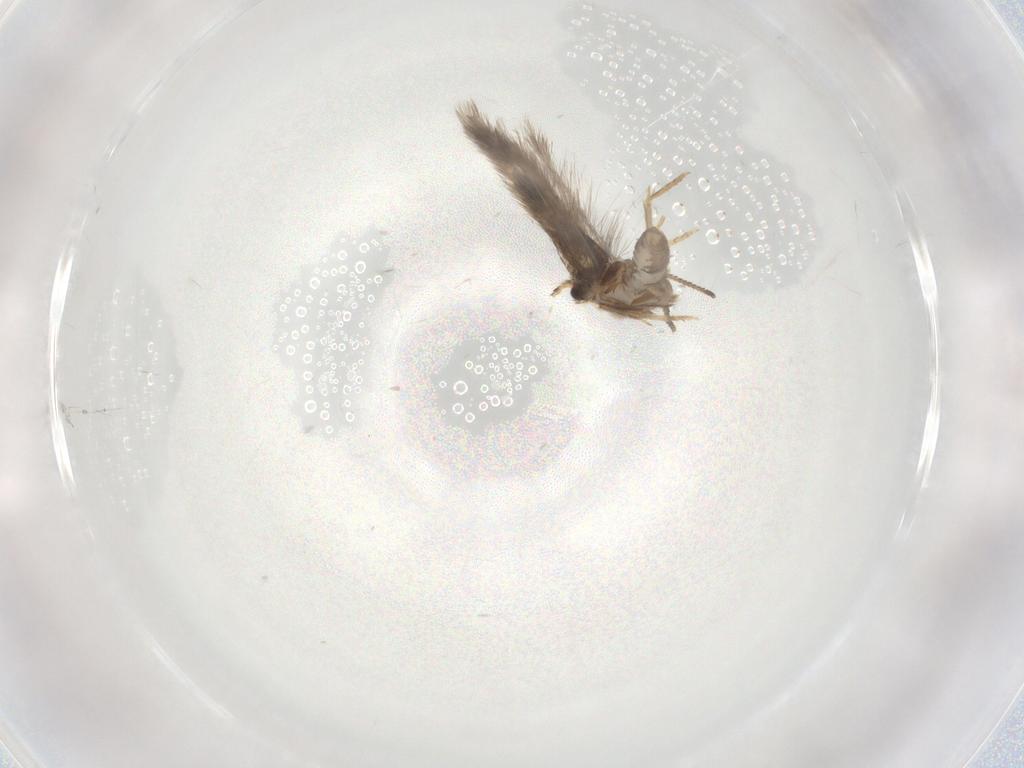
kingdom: Animalia
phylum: Arthropoda
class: Insecta
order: Lepidoptera
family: Nepticulidae
